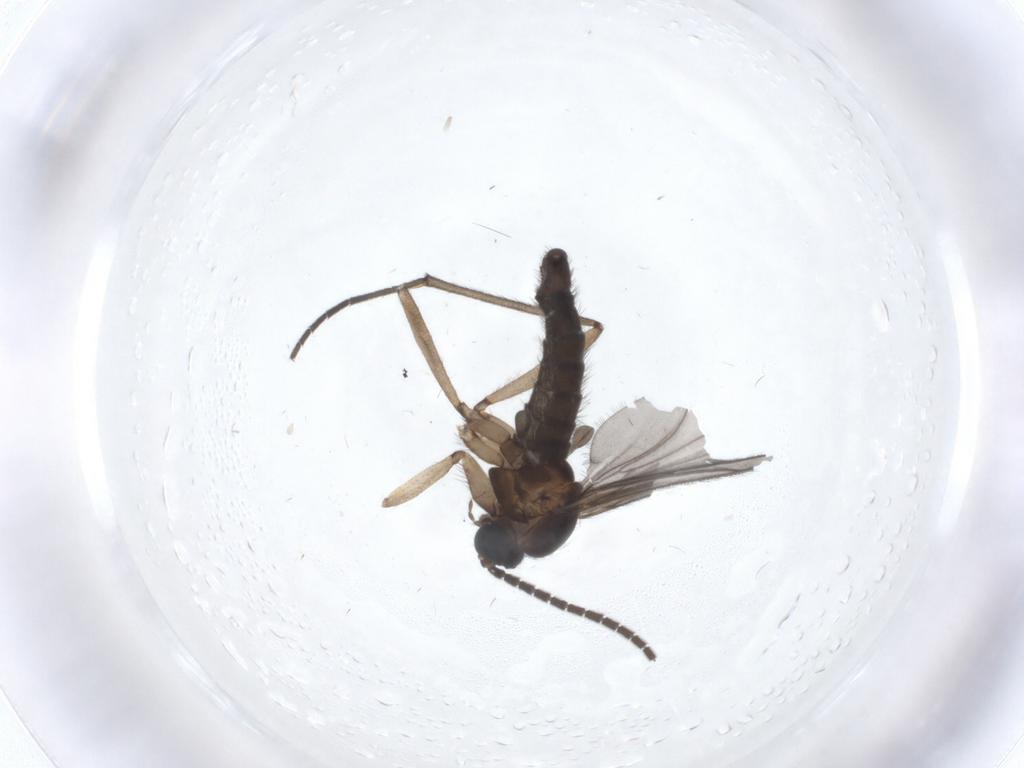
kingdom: Animalia
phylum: Arthropoda
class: Insecta
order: Diptera
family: Sciaridae
